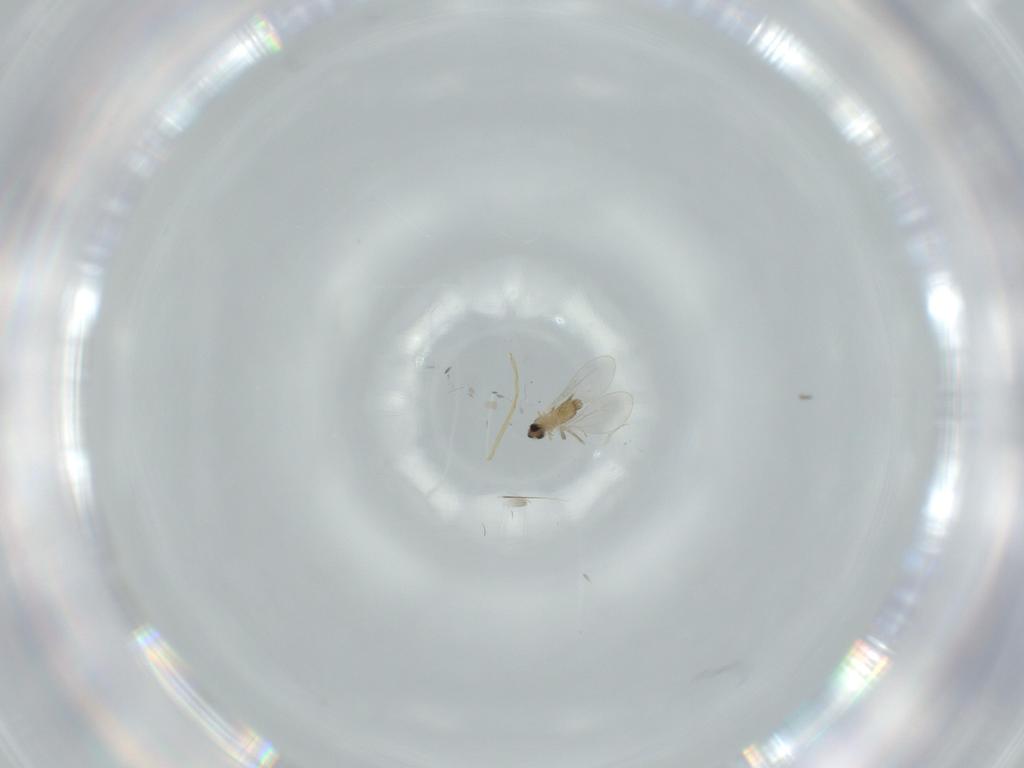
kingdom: Animalia
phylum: Arthropoda
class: Insecta
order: Diptera
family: Cecidomyiidae
